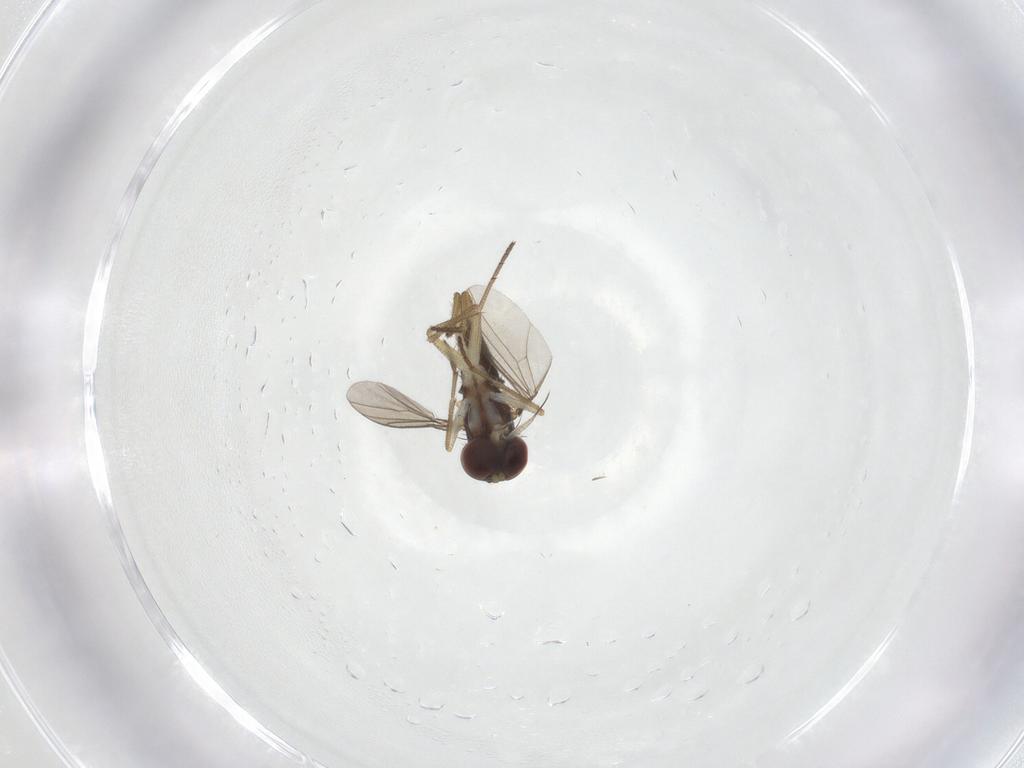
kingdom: Animalia
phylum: Arthropoda
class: Insecta
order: Diptera
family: Dolichopodidae
